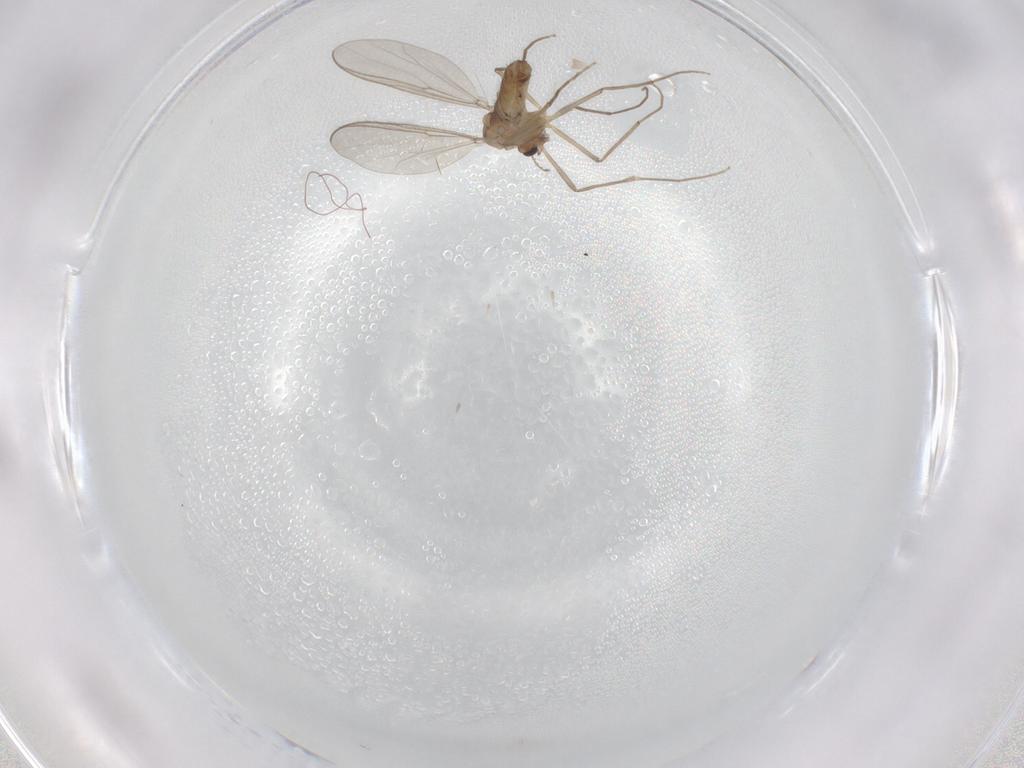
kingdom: Animalia
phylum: Arthropoda
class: Insecta
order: Diptera
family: Chironomidae
